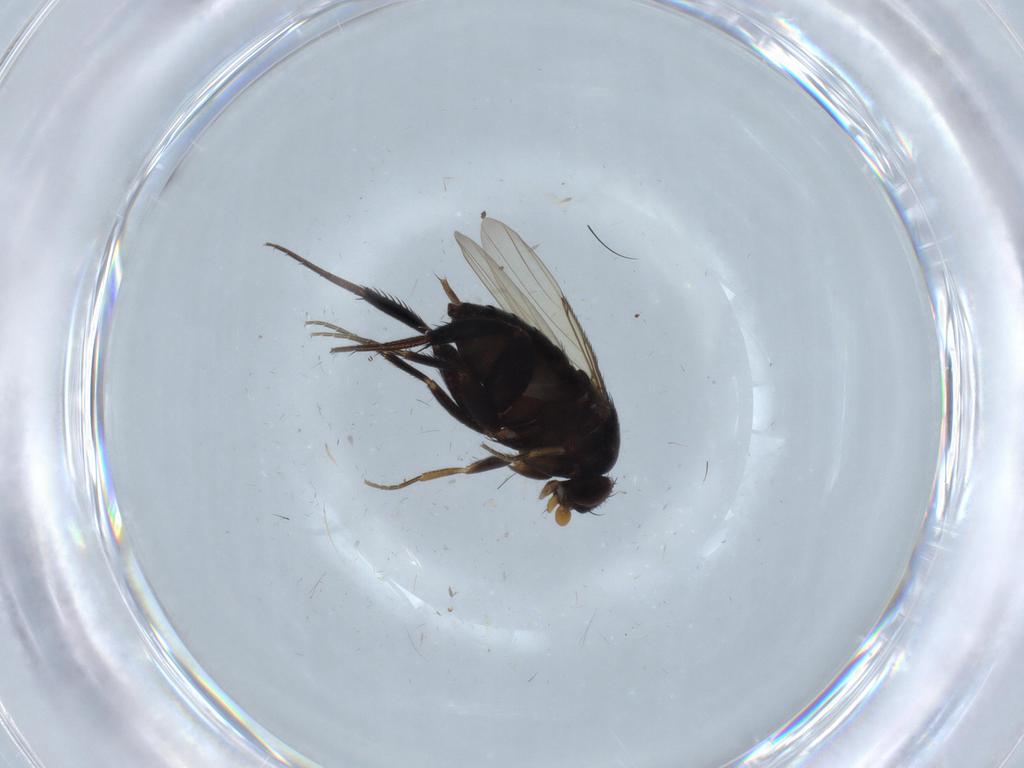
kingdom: Animalia
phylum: Arthropoda
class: Insecta
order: Diptera
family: Phoridae
